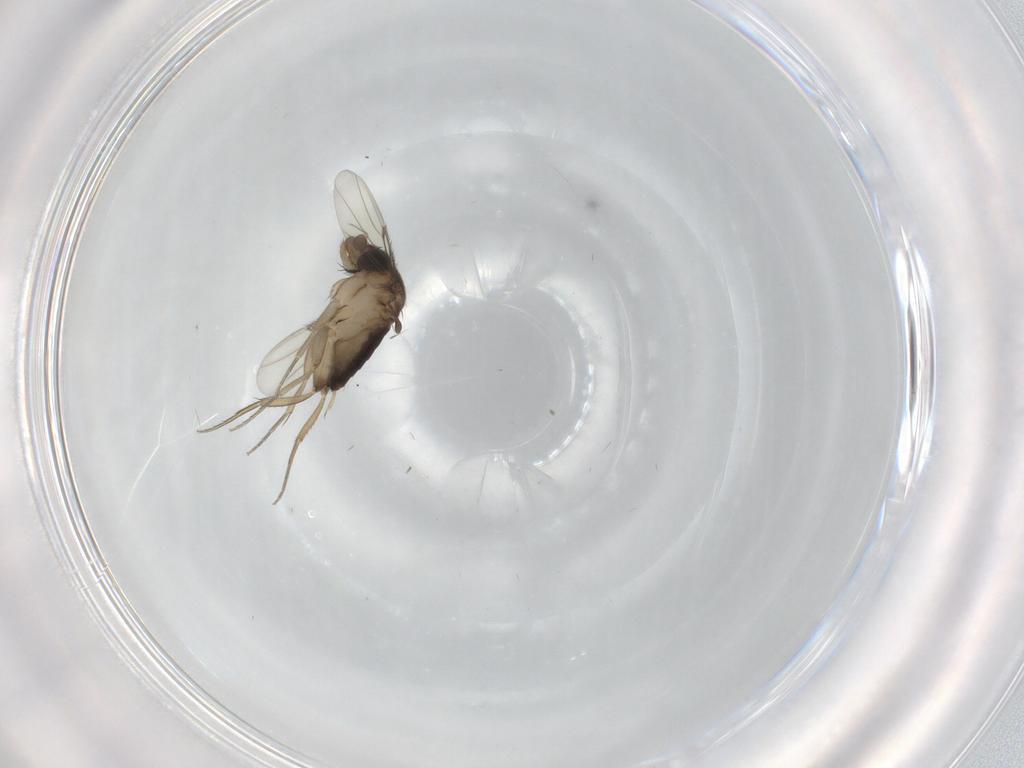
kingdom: Animalia
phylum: Arthropoda
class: Insecta
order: Diptera
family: Phoridae
